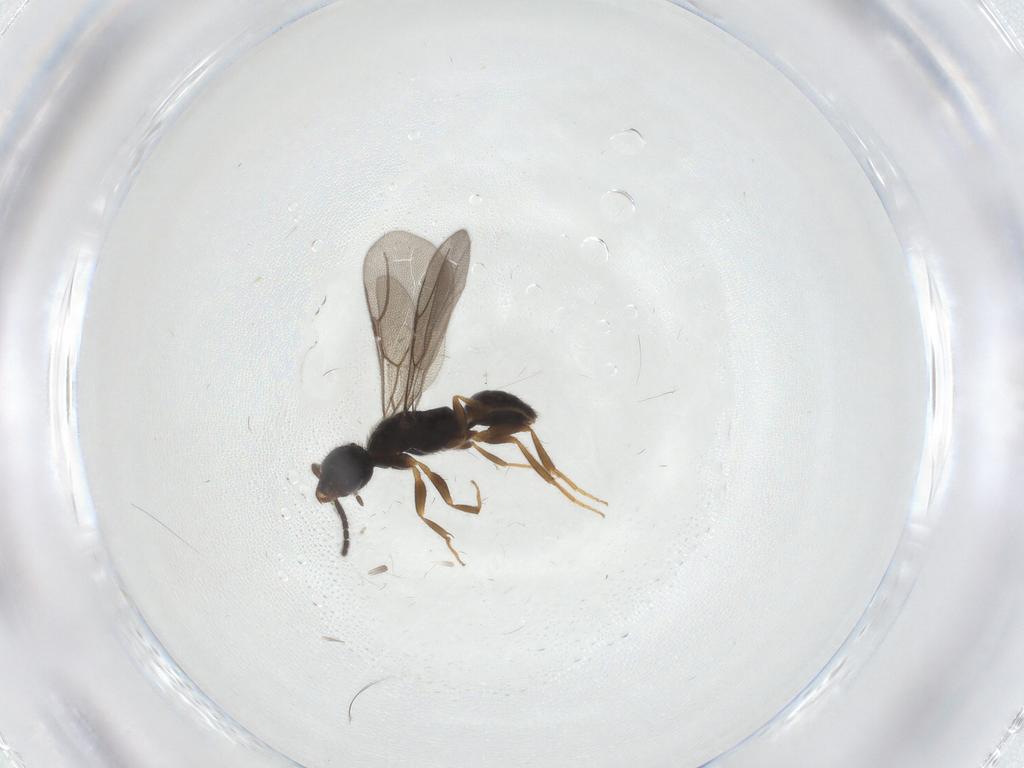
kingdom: Animalia
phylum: Arthropoda
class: Insecta
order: Hymenoptera
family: Bethylidae
